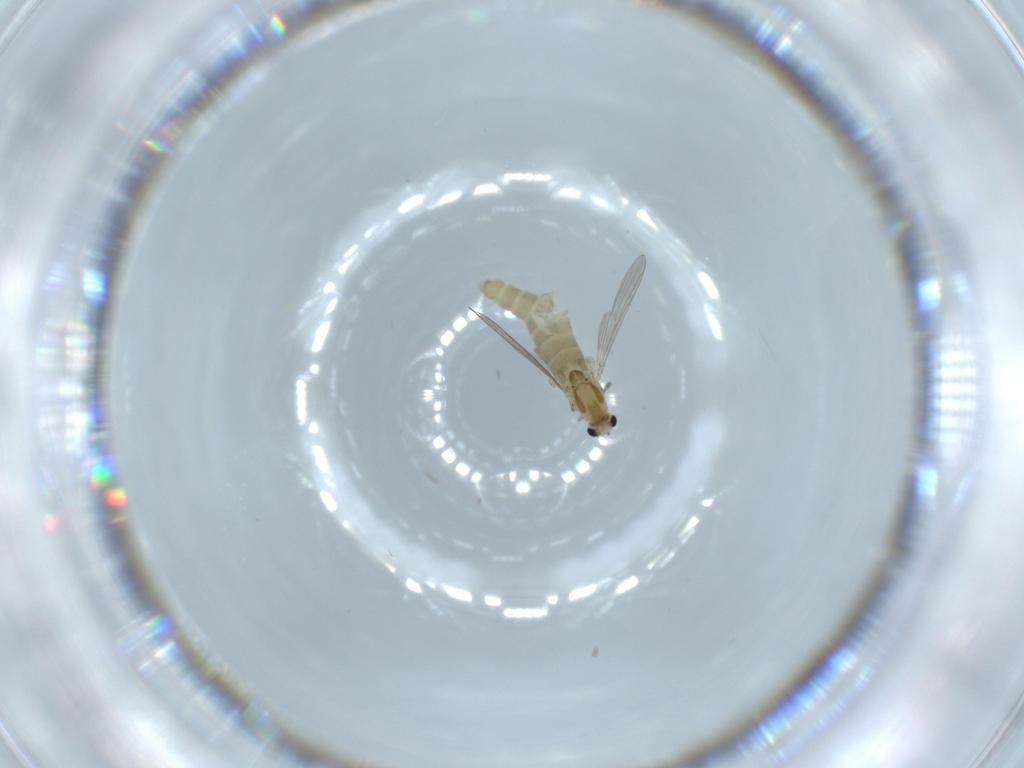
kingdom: Animalia
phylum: Arthropoda
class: Insecta
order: Diptera
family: Chironomidae
